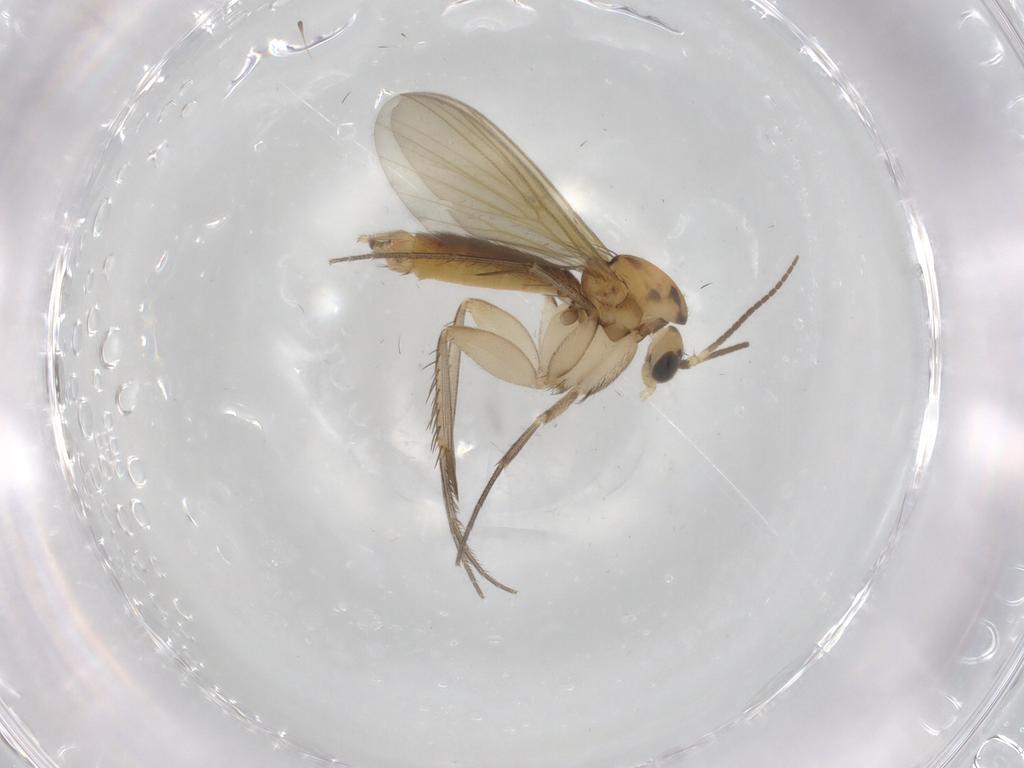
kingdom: Animalia
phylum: Arthropoda
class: Insecta
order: Diptera
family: Mycetophilidae
